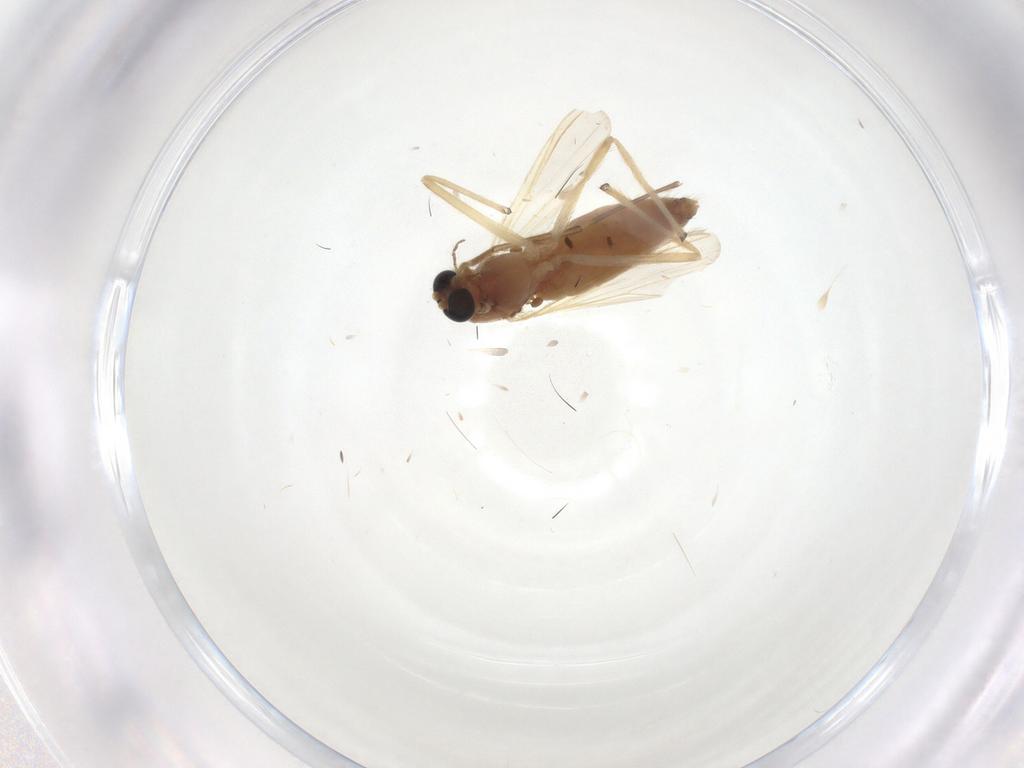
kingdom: Animalia
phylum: Arthropoda
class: Insecta
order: Diptera
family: Chironomidae
